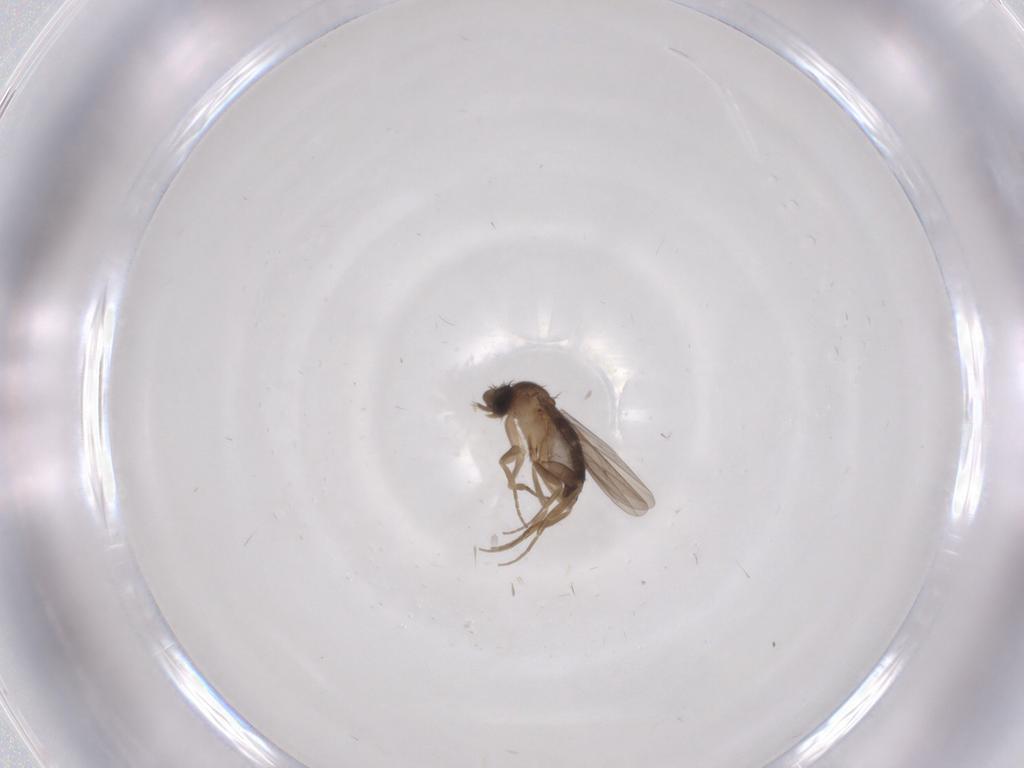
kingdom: Animalia
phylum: Arthropoda
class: Insecta
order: Diptera
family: Phoridae
